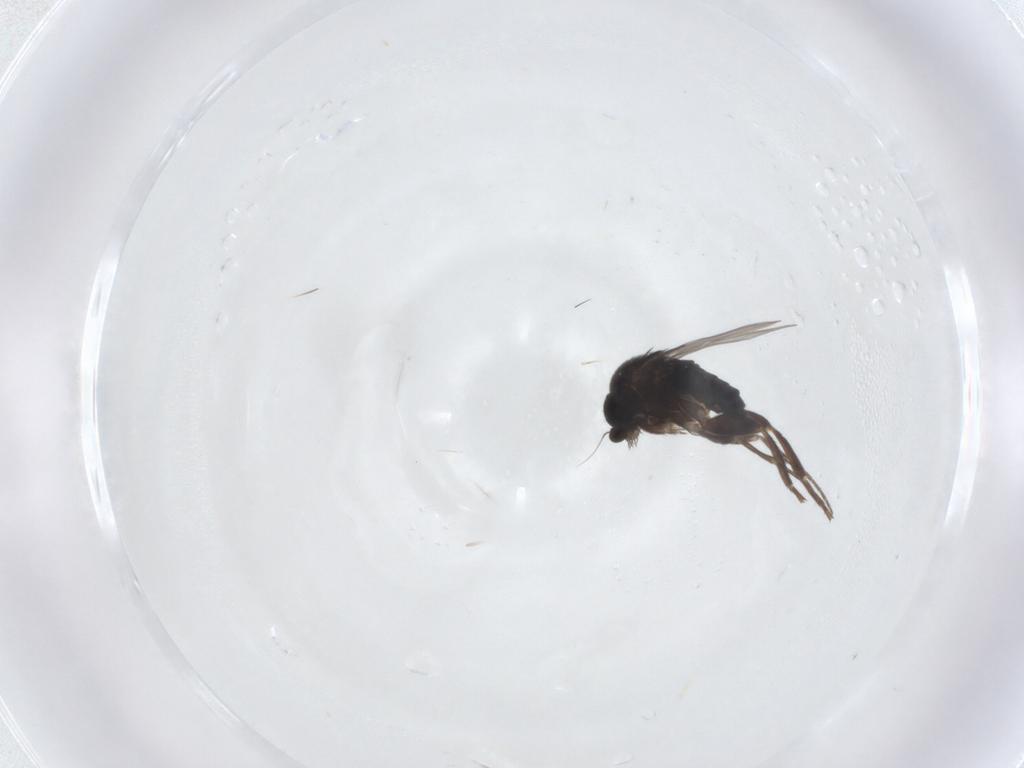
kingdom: Animalia
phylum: Arthropoda
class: Insecta
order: Diptera
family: Phoridae
